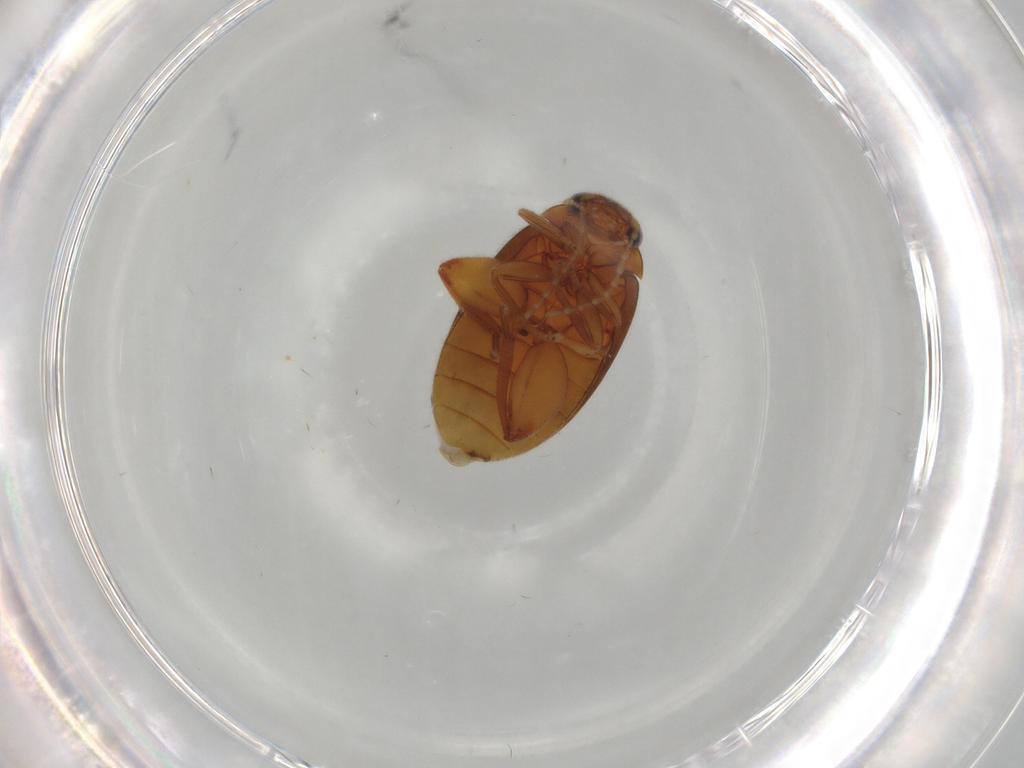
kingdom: Animalia
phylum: Arthropoda
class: Insecta
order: Coleoptera
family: Scirtidae
